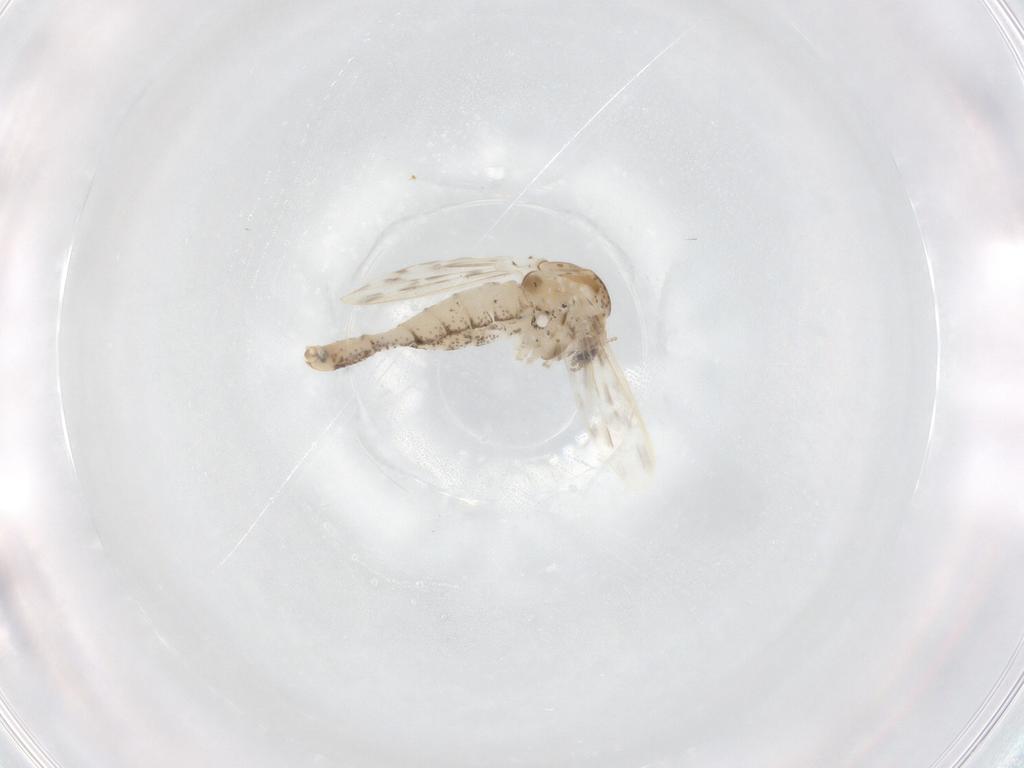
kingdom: Animalia
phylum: Arthropoda
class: Insecta
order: Diptera
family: Chaoboridae
